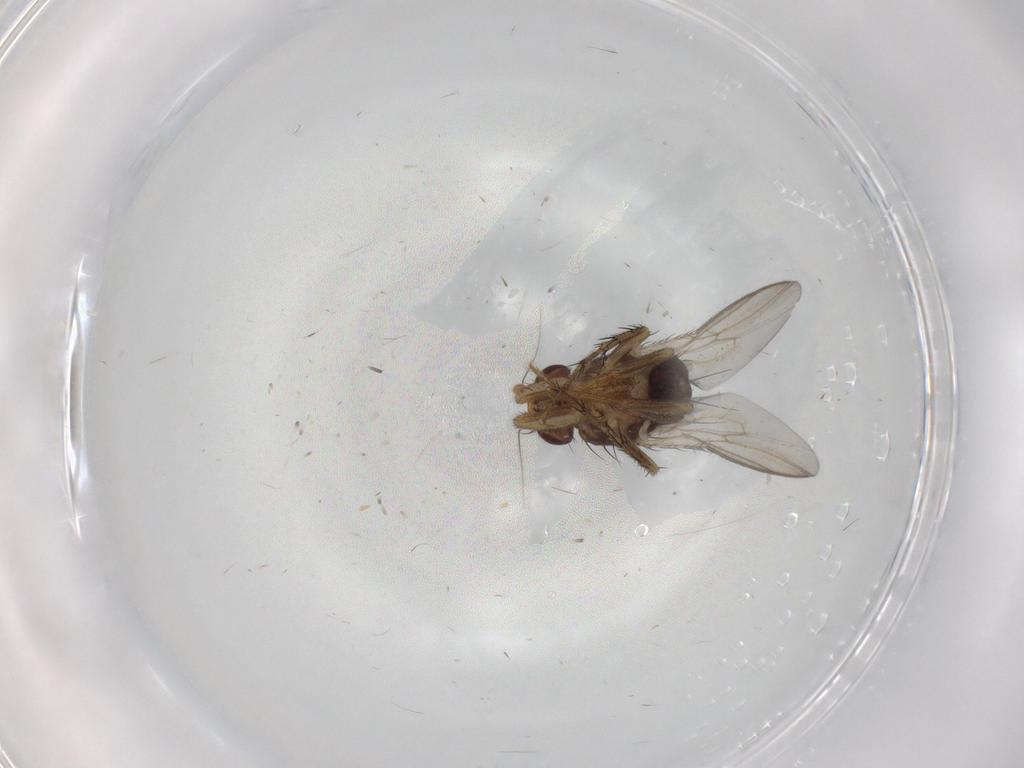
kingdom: Animalia
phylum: Arthropoda
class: Insecta
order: Diptera
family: Sphaeroceridae
